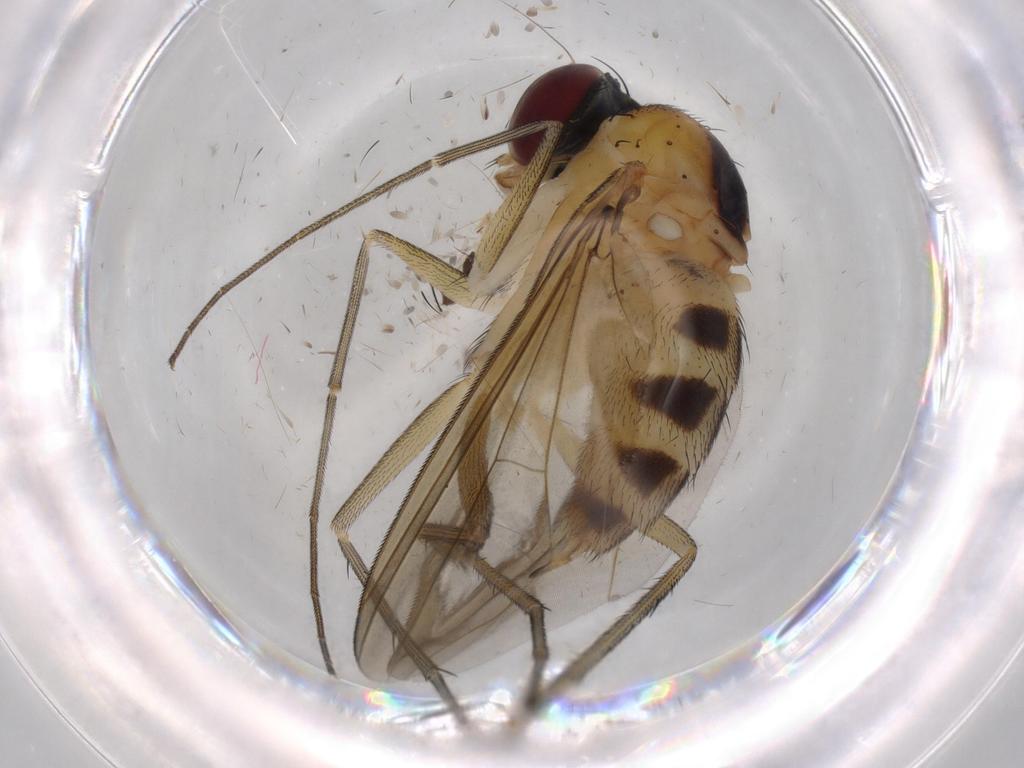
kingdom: Animalia
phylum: Arthropoda
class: Insecta
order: Diptera
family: Dolichopodidae
